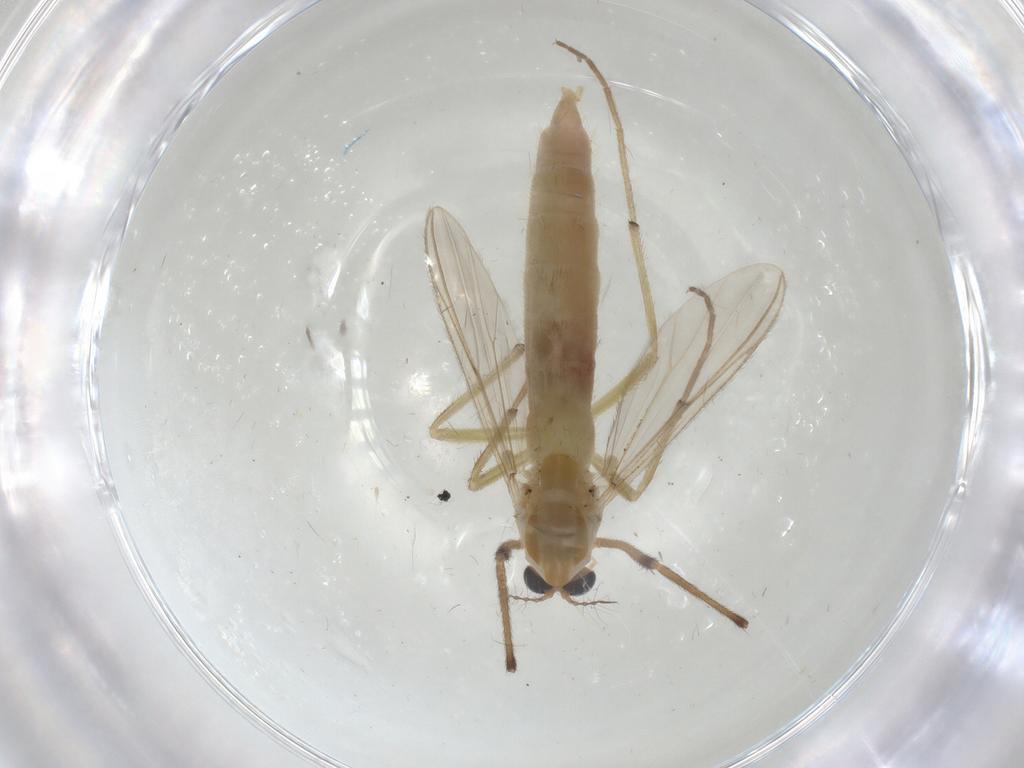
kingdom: Animalia
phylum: Arthropoda
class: Insecta
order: Diptera
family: Chironomidae
